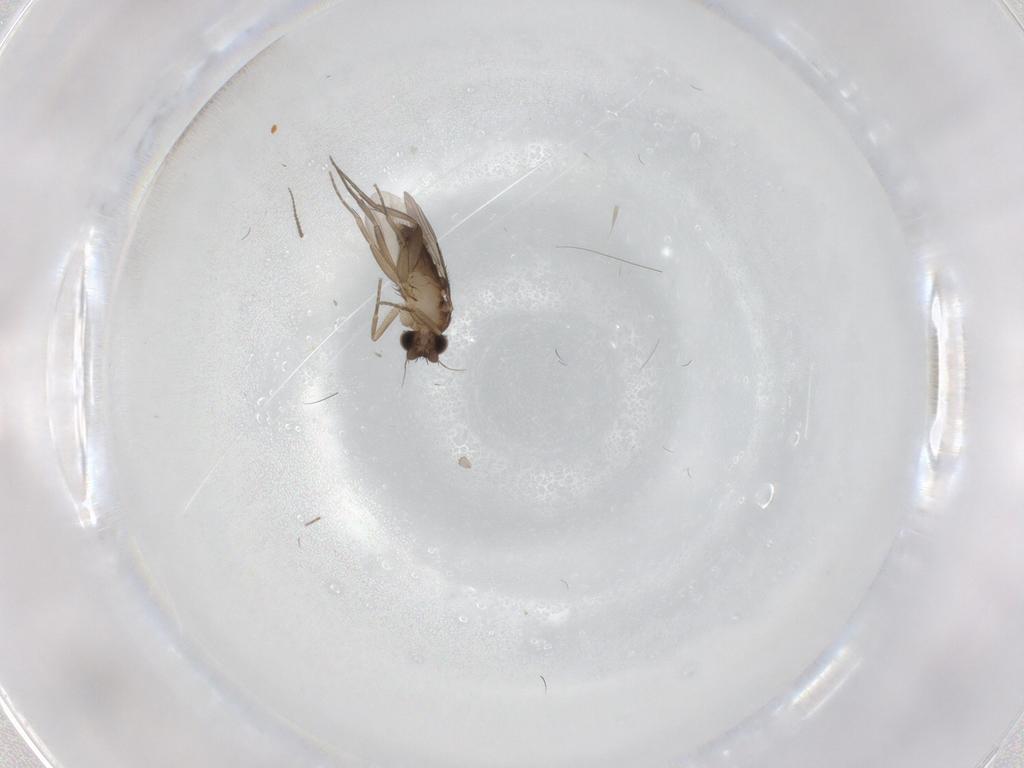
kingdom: Animalia
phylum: Arthropoda
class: Insecta
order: Diptera
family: Phoridae
